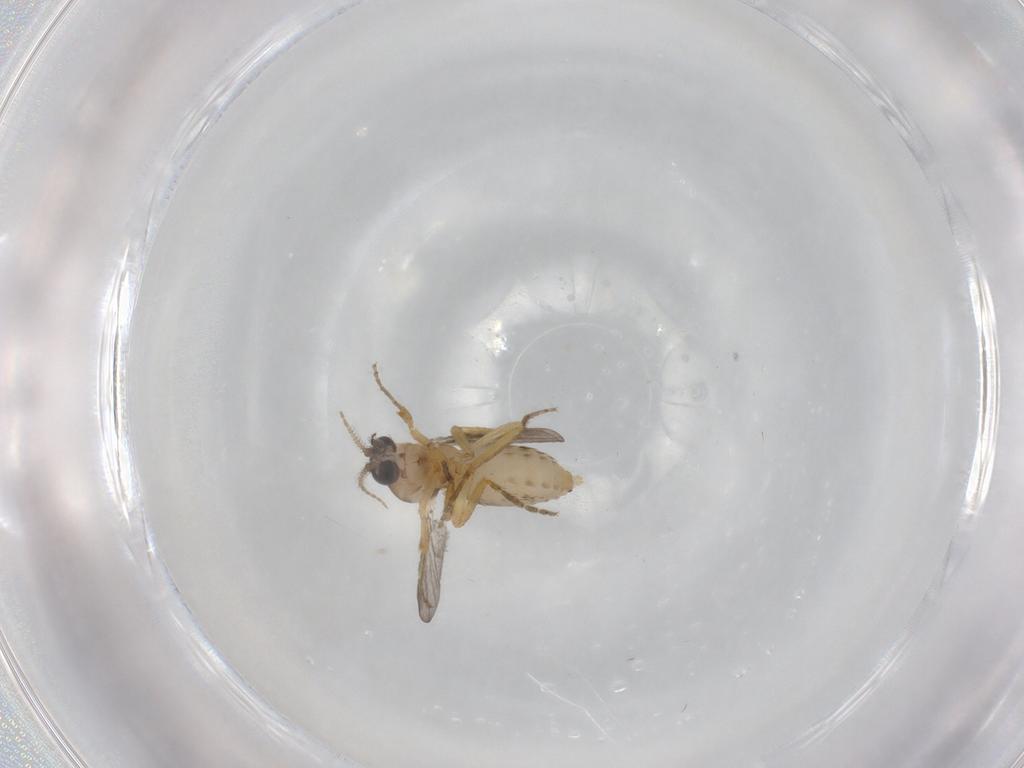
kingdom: Animalia
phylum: Arthropoda
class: Insecta
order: Diptera
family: Ceratopogonidae
